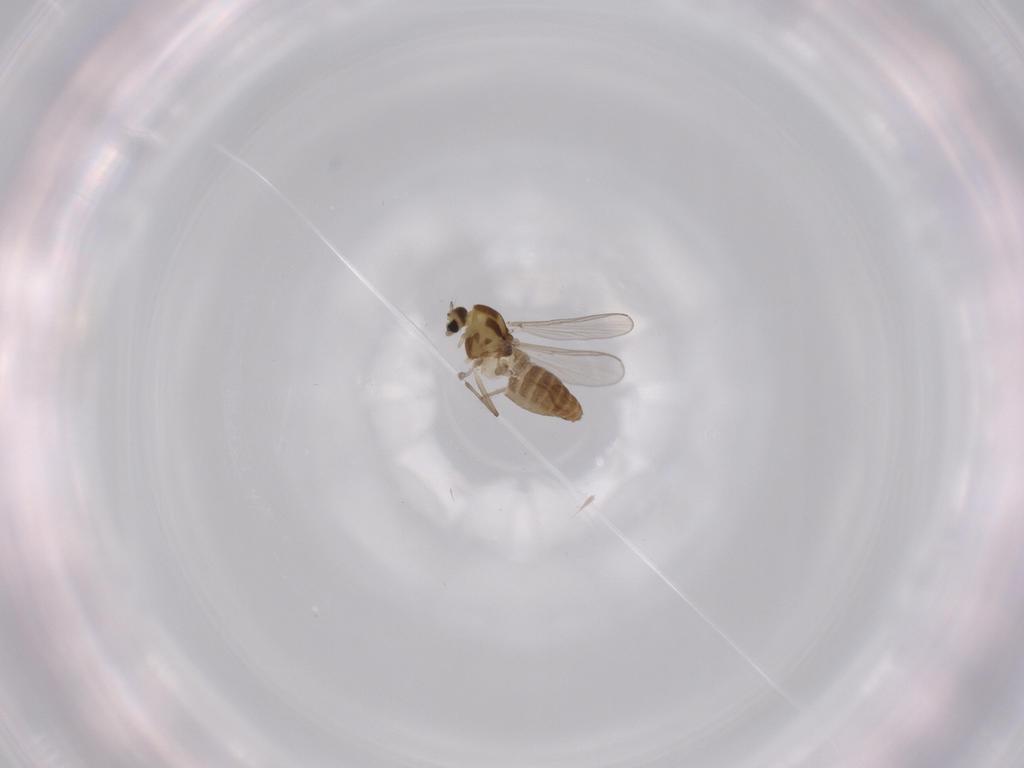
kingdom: Animalia
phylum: Arthropoda
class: Insecta
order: Diptera
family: Chironomidae
